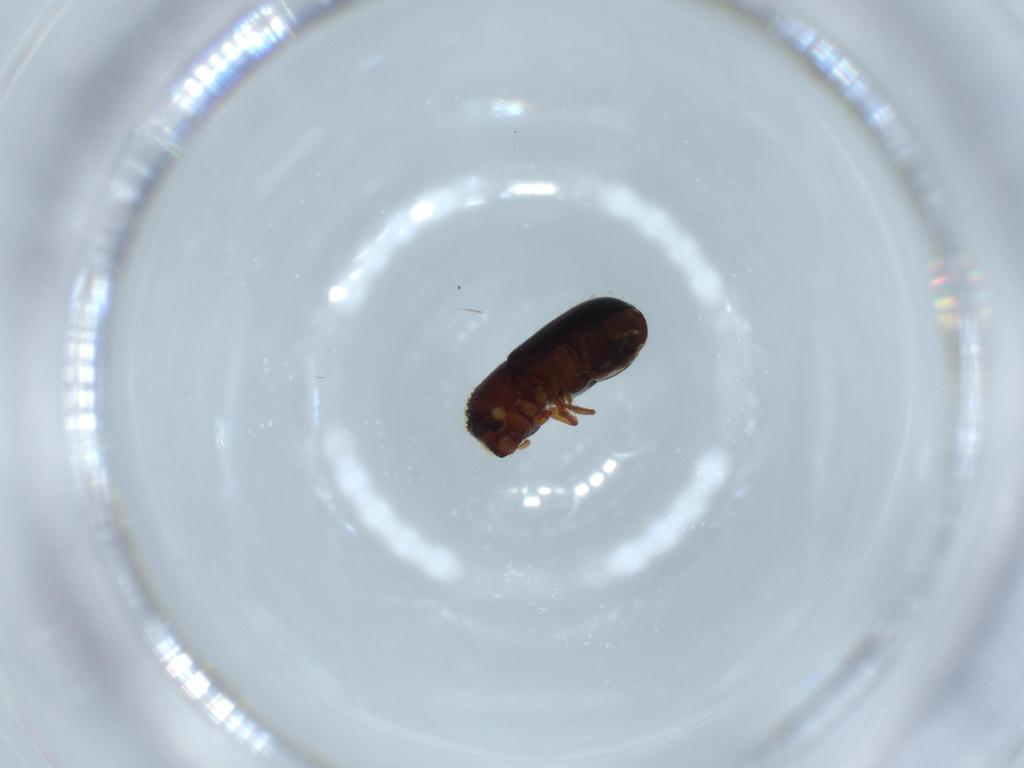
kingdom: Animalia
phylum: Arthropoda
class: Insecta
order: Coleoptera
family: Curculionidae
